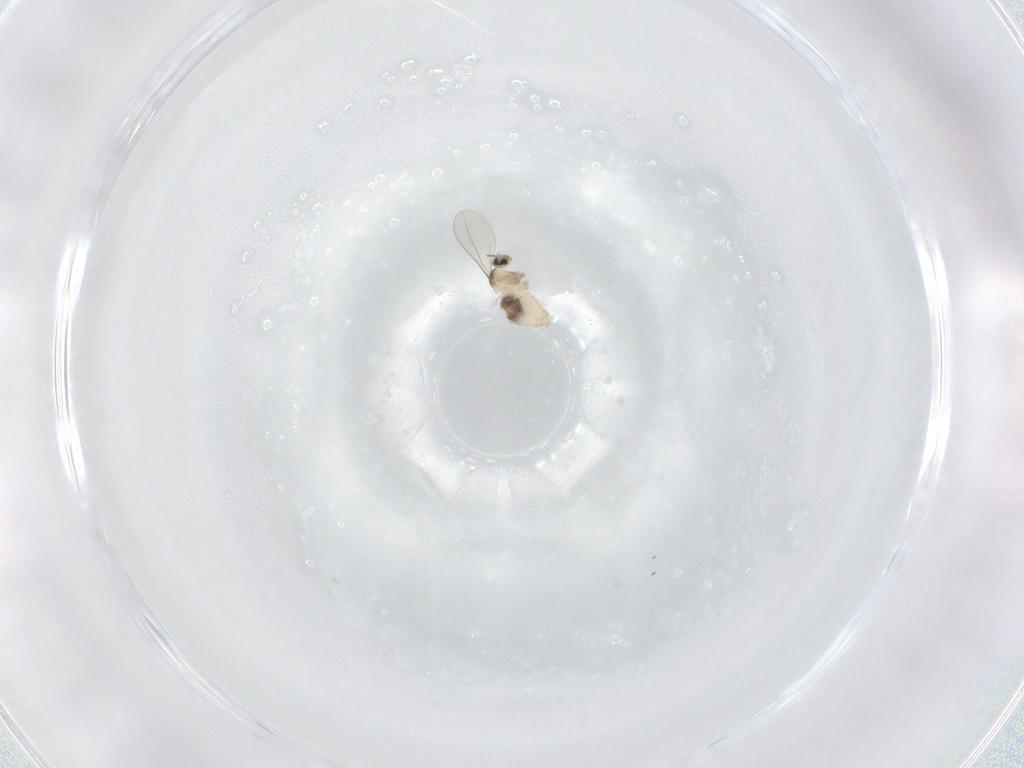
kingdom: Animalia
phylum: Arthropoda
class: Insecta
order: Diptera
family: Cecidomyiidae
